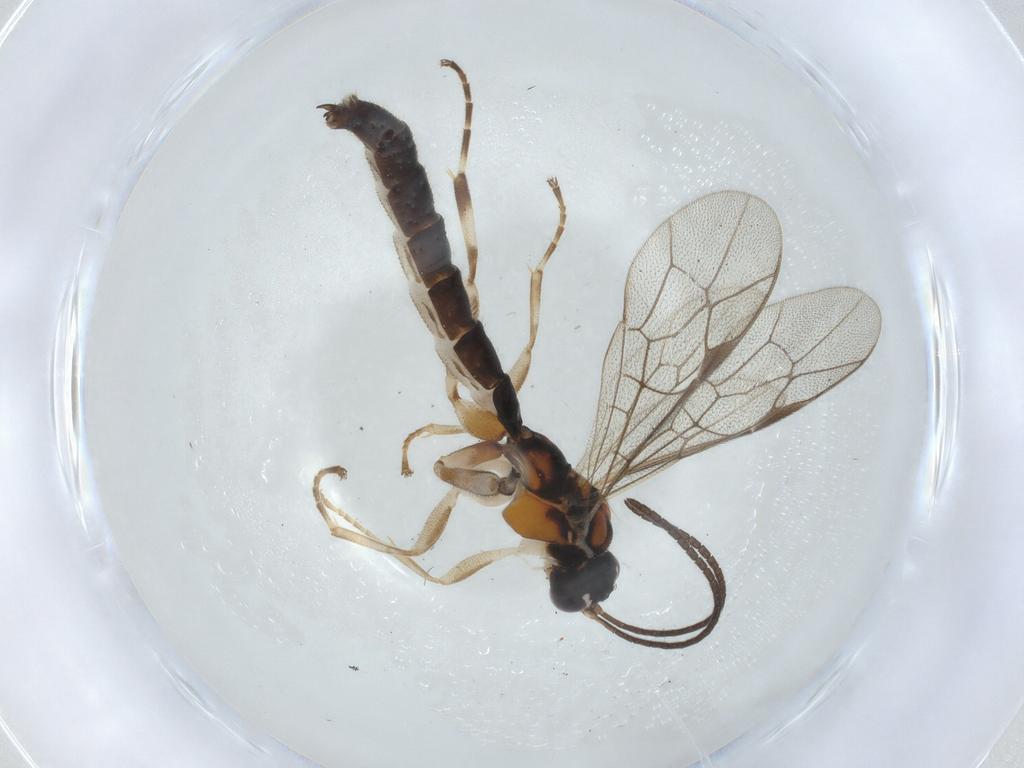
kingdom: Animalia
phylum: Arthropoda
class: Insecta
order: Hymenoptera
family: Ichneumonidae
